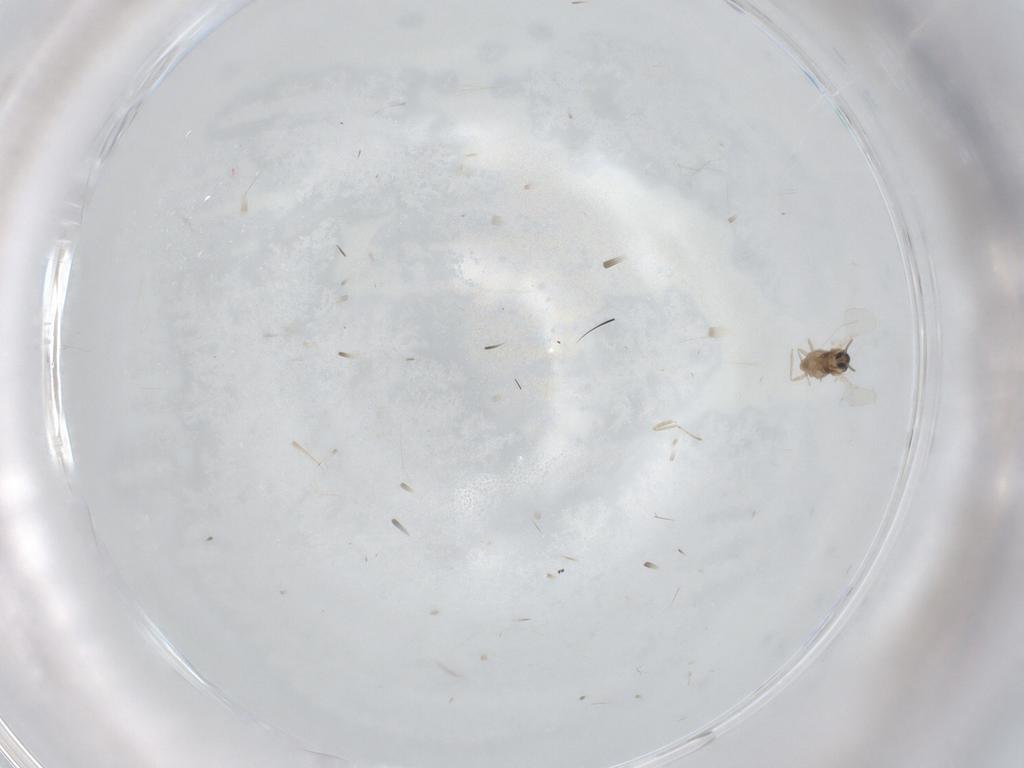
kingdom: Animalia
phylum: Arthropoda
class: Insecta
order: Diptera
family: Cecidomyiidae
